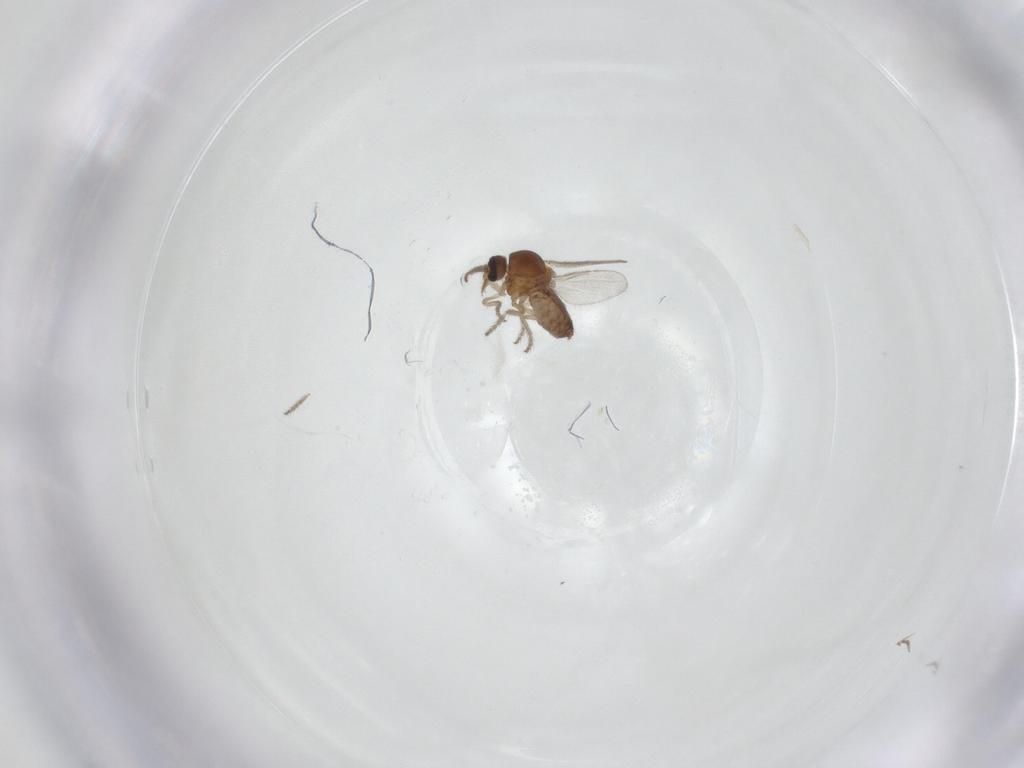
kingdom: Animalia
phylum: Arthropoda
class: Insecta
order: Diptera
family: Ceratopogonidae
